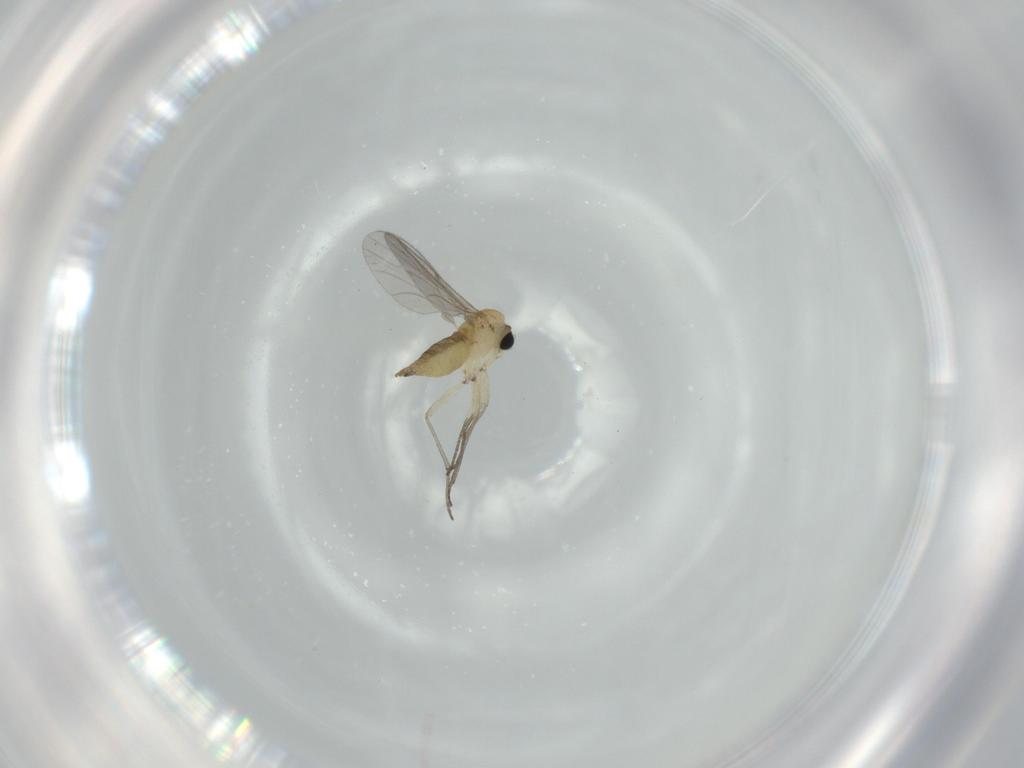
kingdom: Animalia
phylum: Arthropoda
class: Insecta
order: Diptera
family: Sciaridae
